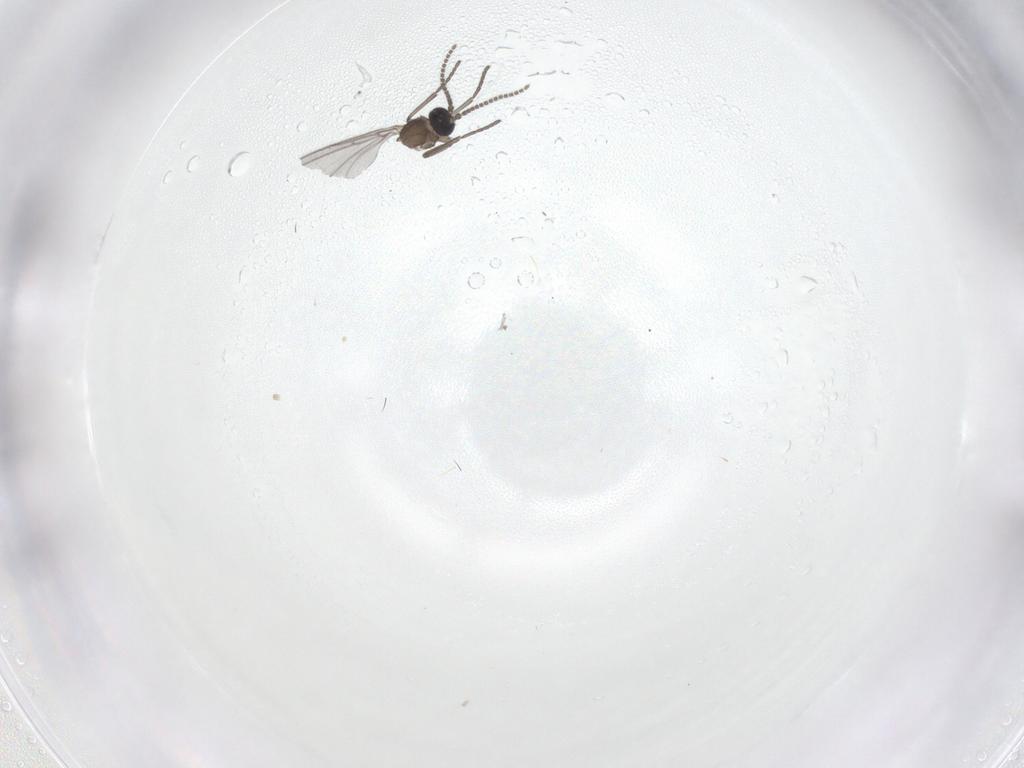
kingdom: Animalia
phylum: Arthropoda
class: Insecta
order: Diptera
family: Sciaridae
